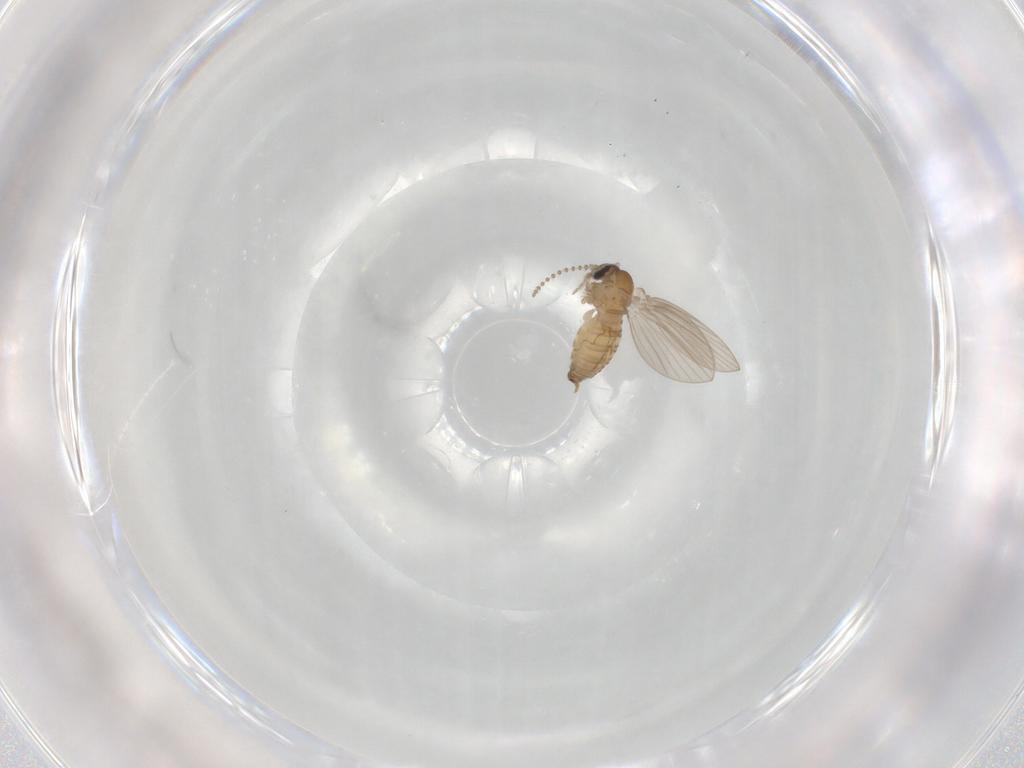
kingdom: Animalia
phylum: Arthropoda
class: Insecta
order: Diptera
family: Psychodidae
